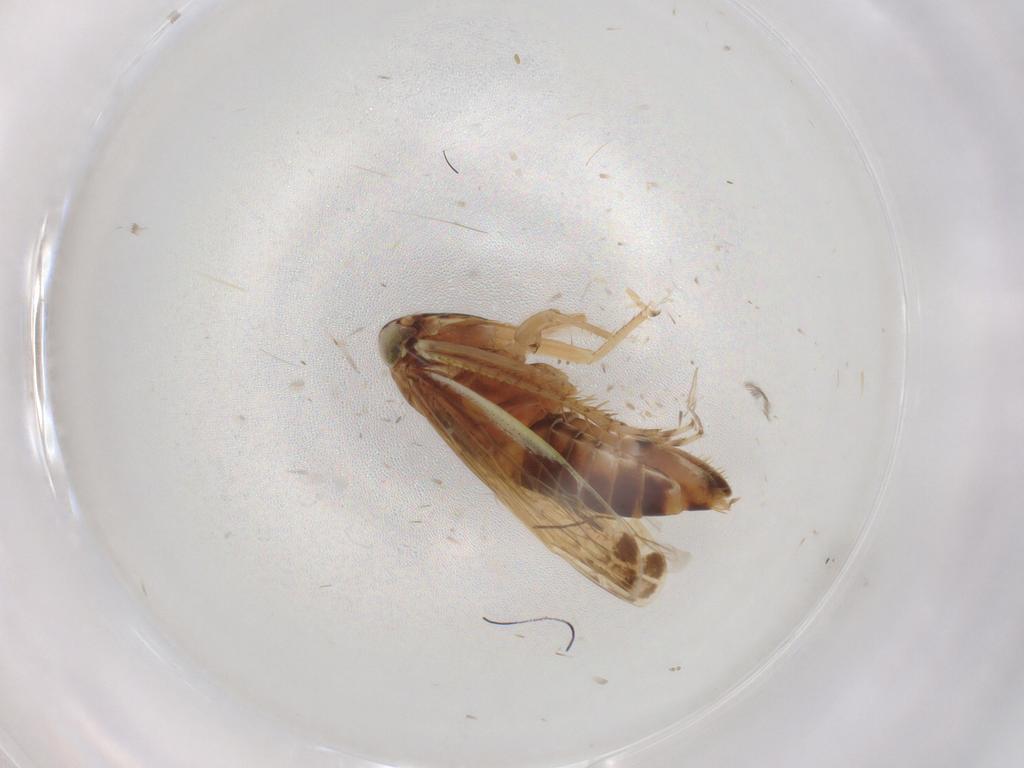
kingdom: Animalia
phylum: Arthropoda
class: Insecta
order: Hemiptera
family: Cicadellidae
